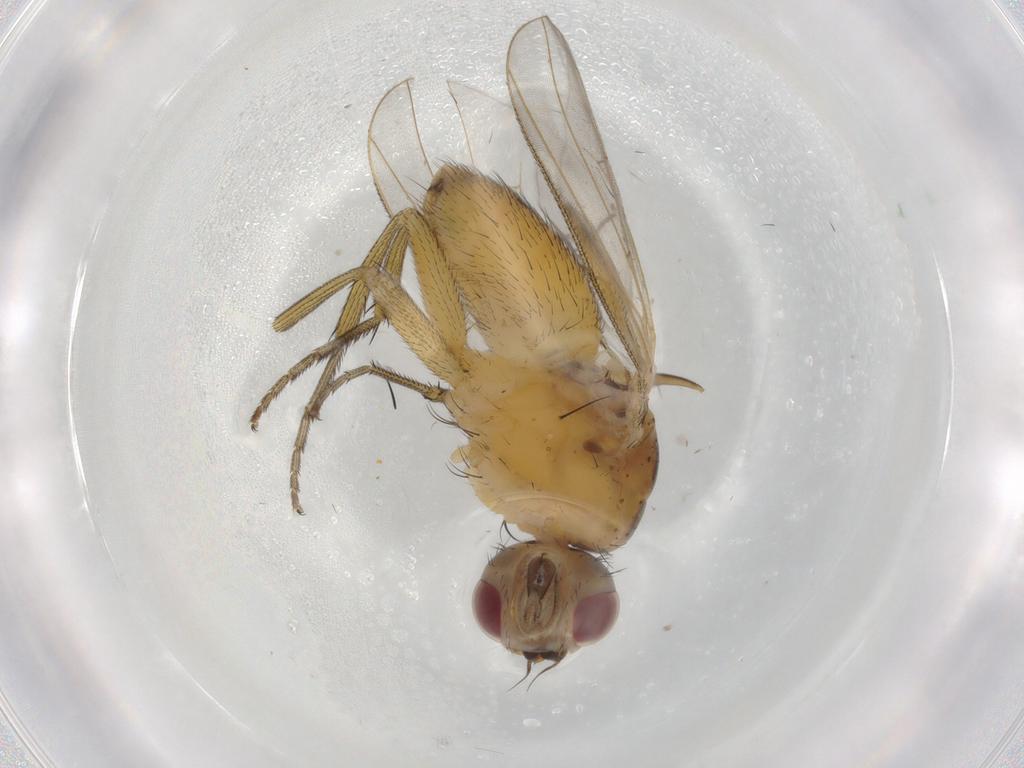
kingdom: Animalia
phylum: Arthropoda
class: Insecta
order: Diptera
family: Muscidae
